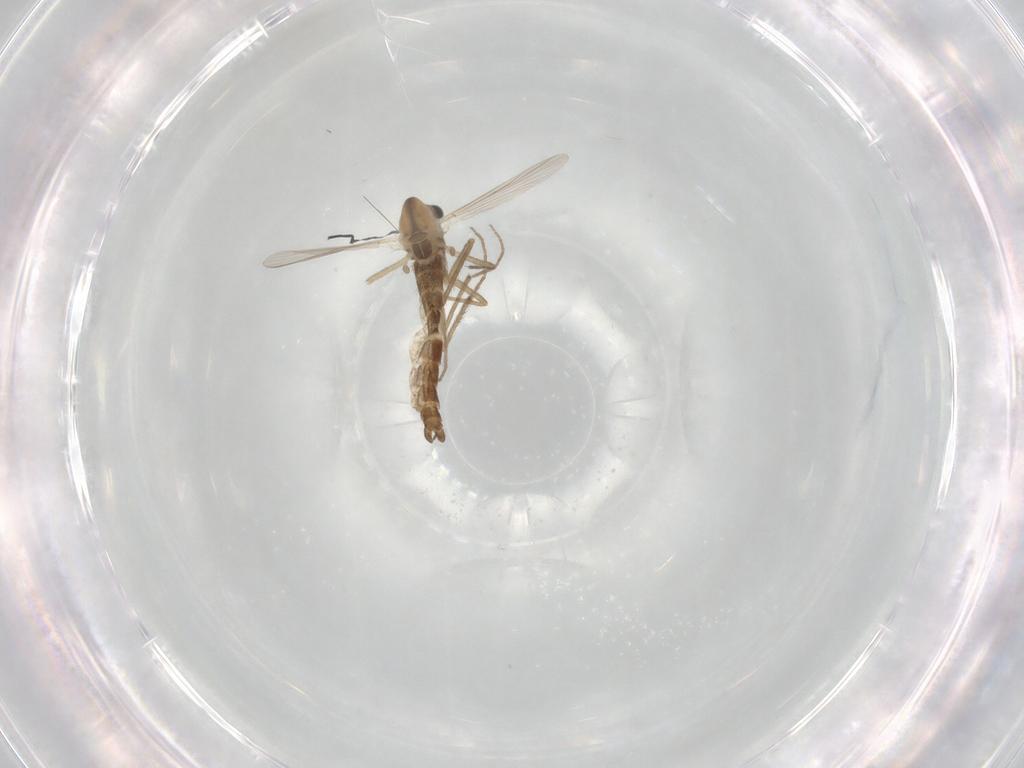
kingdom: Animalia
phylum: Arthropoda
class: Insecta
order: Diptera
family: Chironomidae
